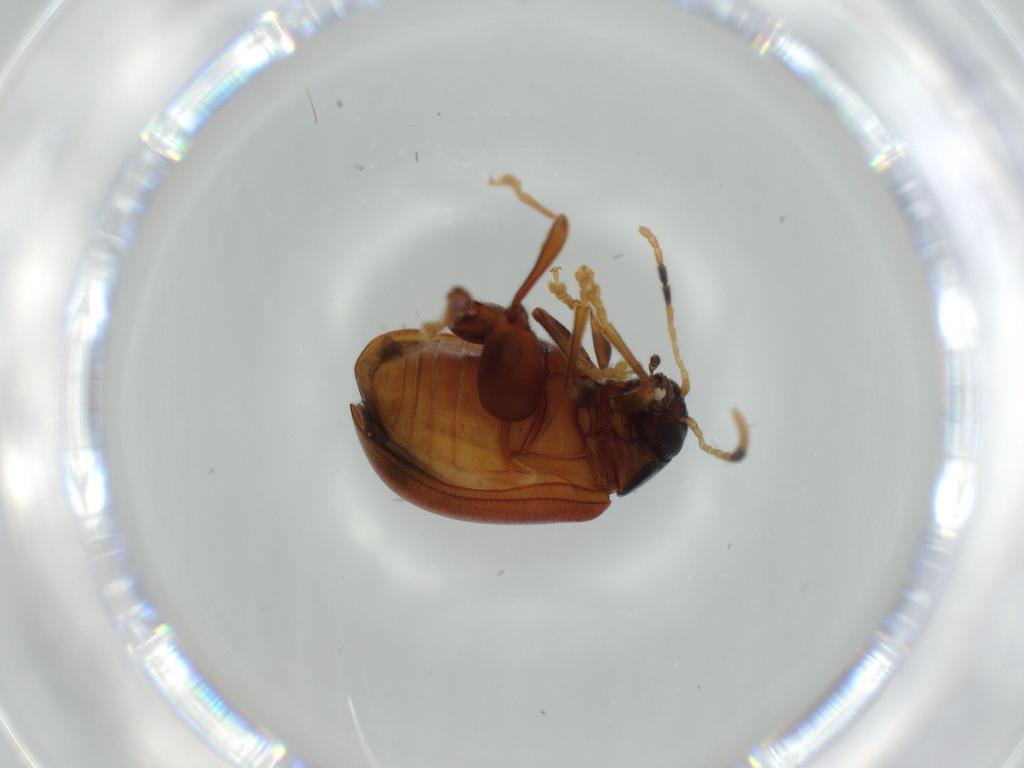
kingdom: Animalia
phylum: Arthropoda
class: Insecta
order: Coleoptera
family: Chrysomelidae
